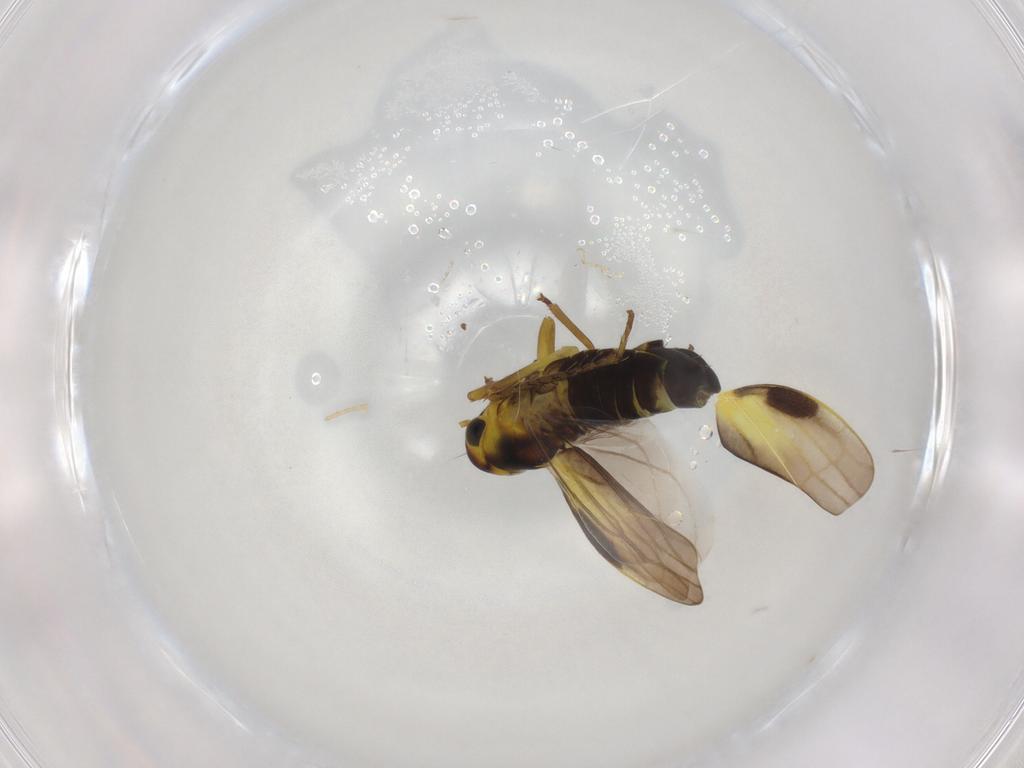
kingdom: Animalia
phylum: Arthropoda
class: Insecta
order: Hemiptera
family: Cicadellidae
